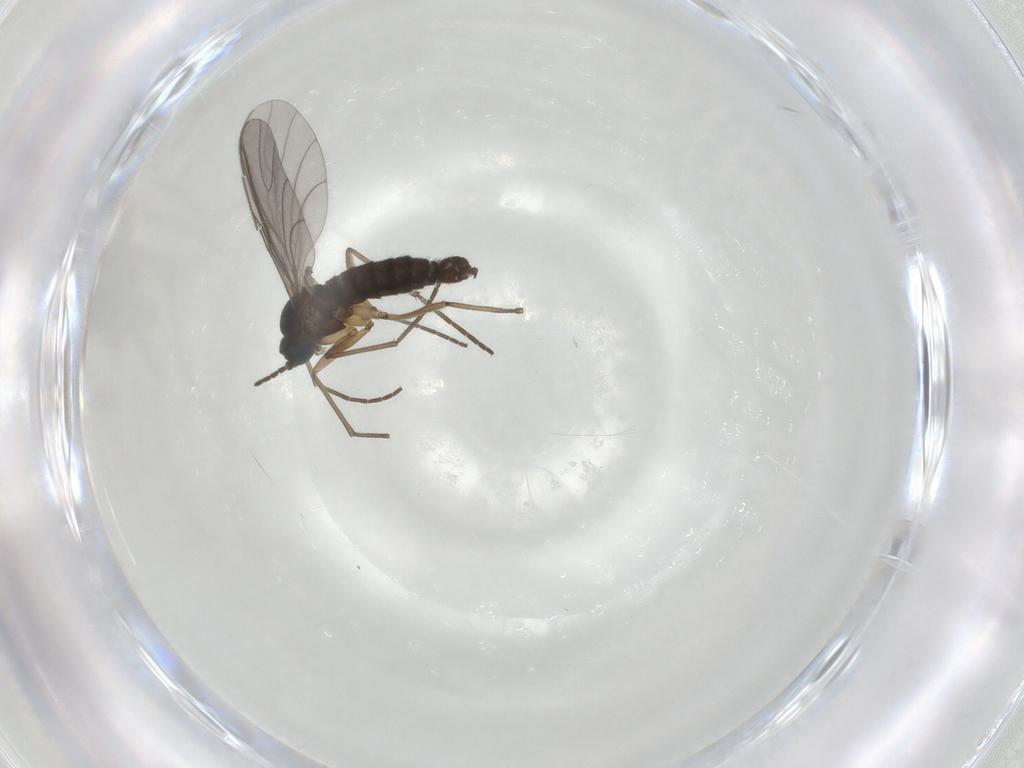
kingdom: Animalia
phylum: Arthropoda
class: Insecta
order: Diptera
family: Sciaridae
